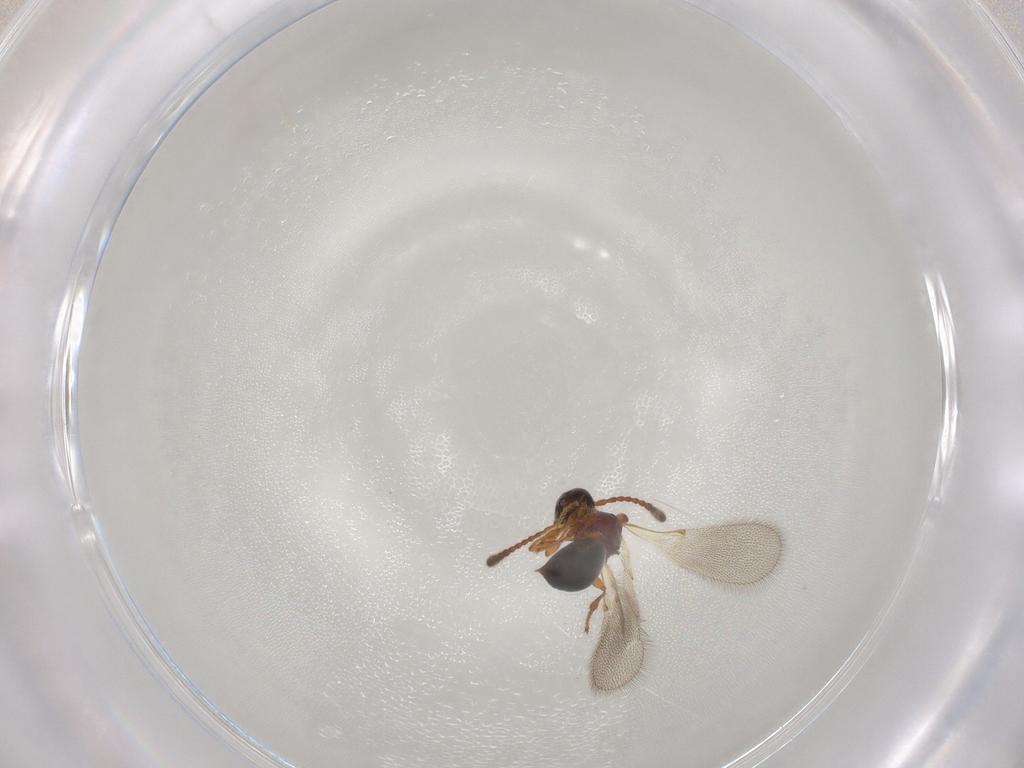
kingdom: Animalia
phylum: Arthropoda
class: Insecta
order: Hymenoptera
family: Diapriidae
